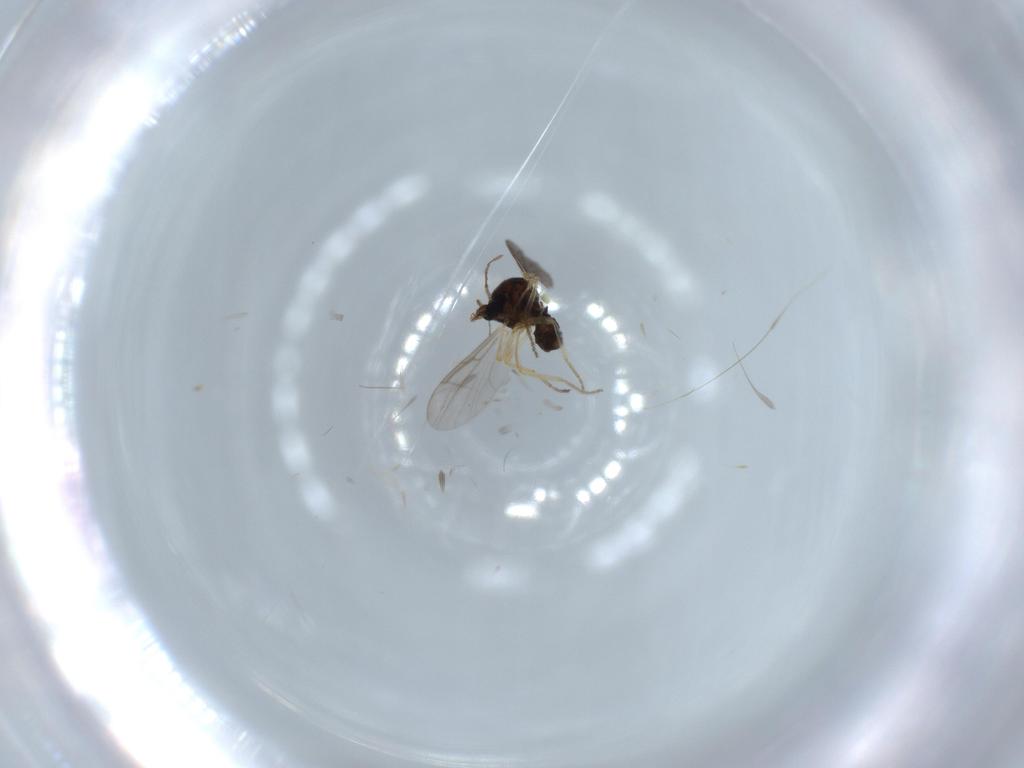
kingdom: Animalia
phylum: Arthropoda
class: Insecta
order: Diptera
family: Ceratopogonidae
